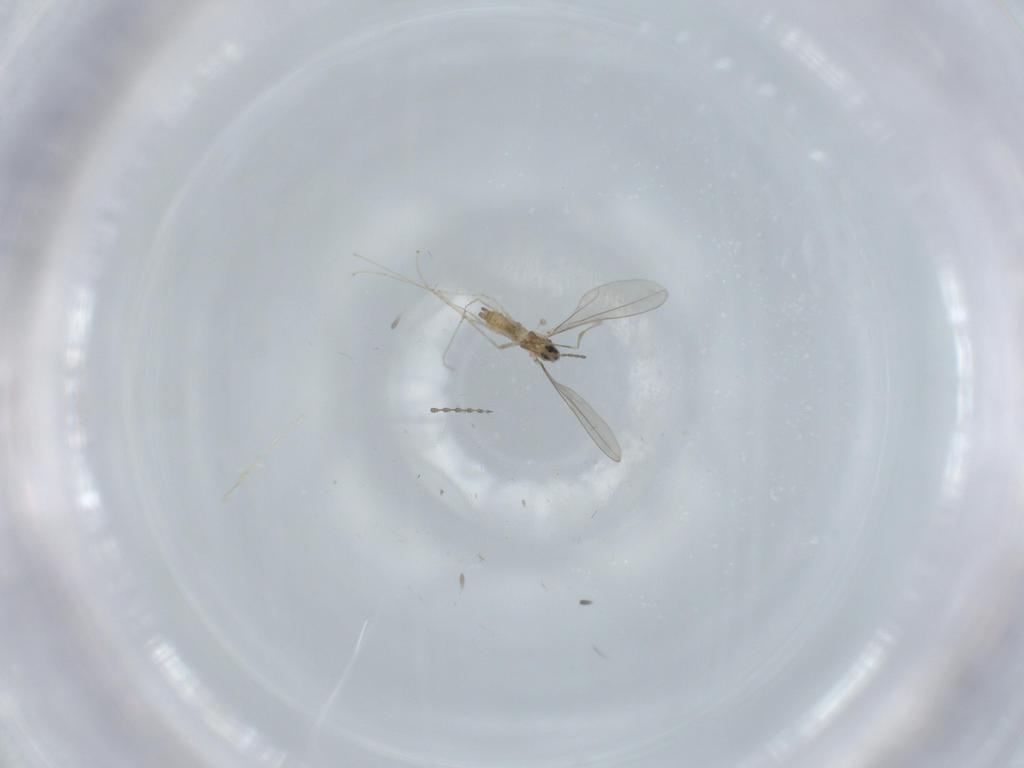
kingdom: Animalia
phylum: Arthropoda
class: Insecta
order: Diptera
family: Cecidomyiidae
